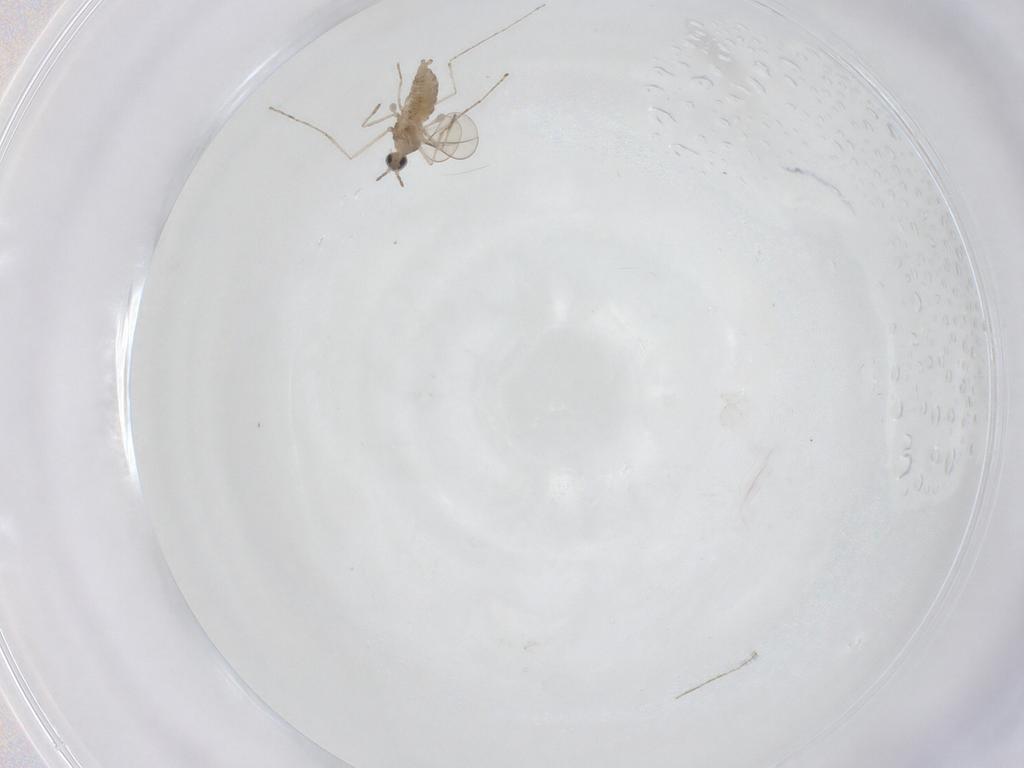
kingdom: Animalia
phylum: Arthropoda
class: Insecta
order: Diptera
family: Cecidomyiidae
